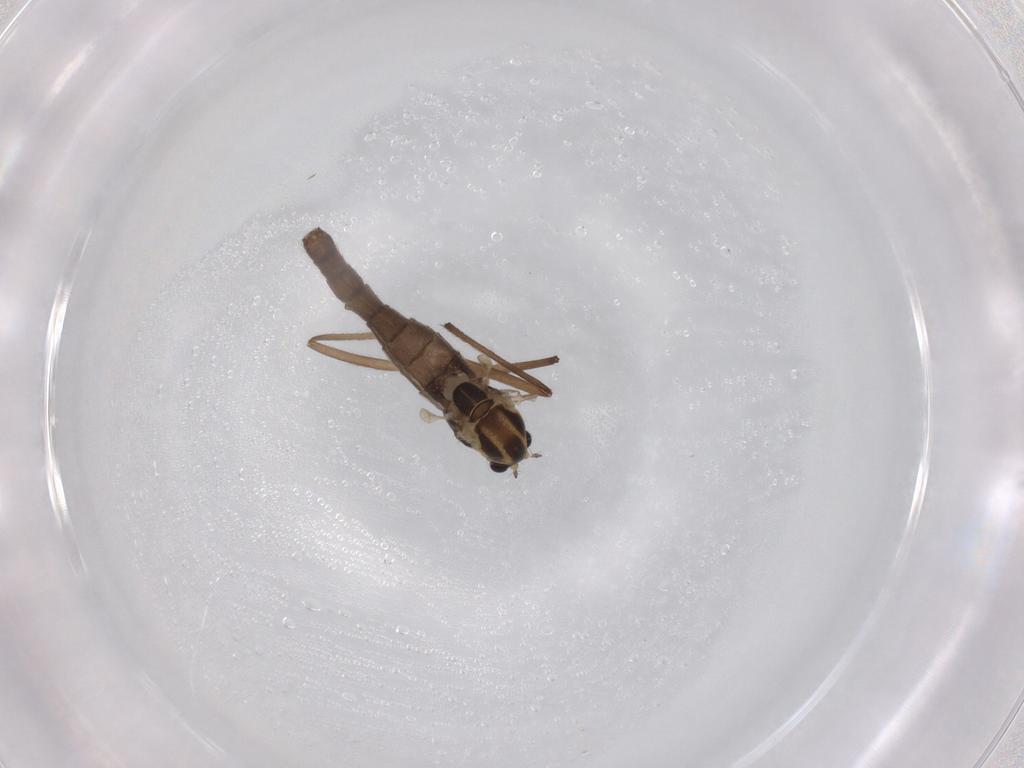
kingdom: Animalia
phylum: Arthropoda
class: Insecta
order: Diptera
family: Chironomidae
